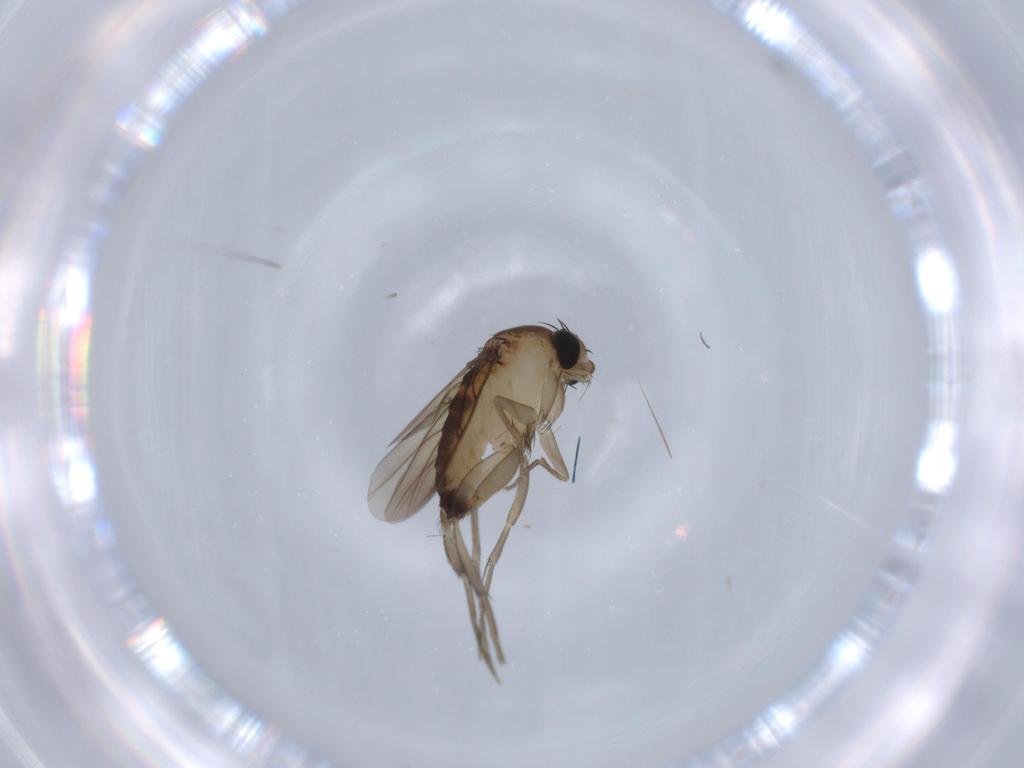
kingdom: Animalia
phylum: Arthropoda
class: Insecta
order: Diptera
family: Phoridae
